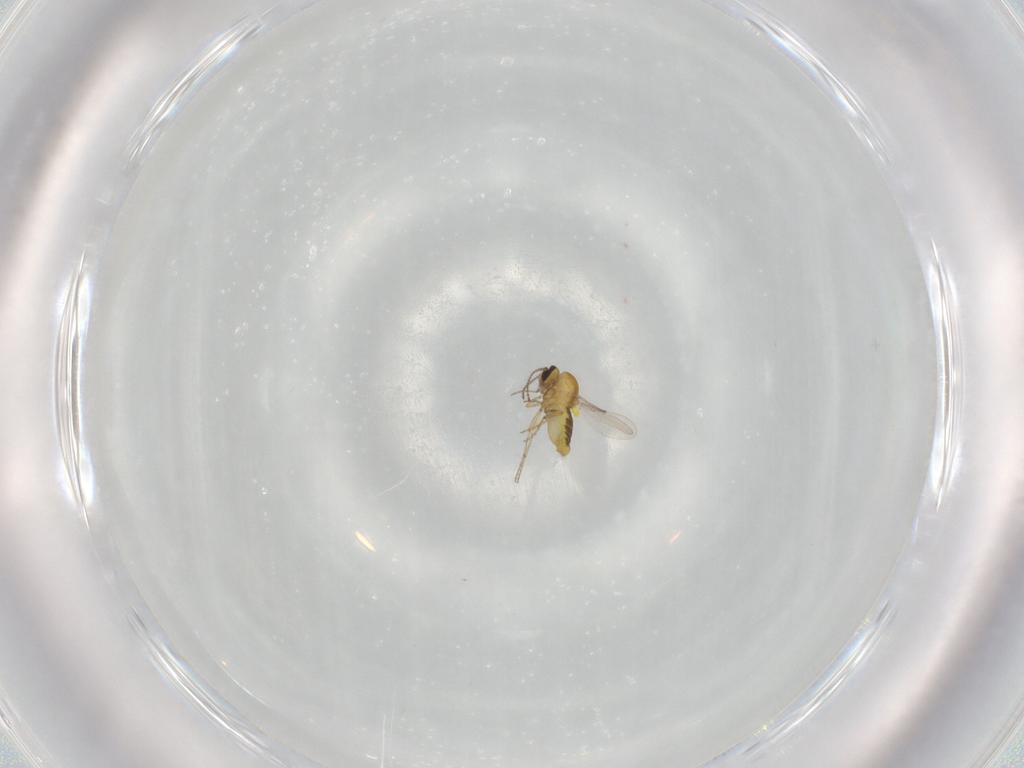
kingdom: Animalia
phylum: Arthropoda
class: Insecta
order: Diptera
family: Ceratopogonidae
